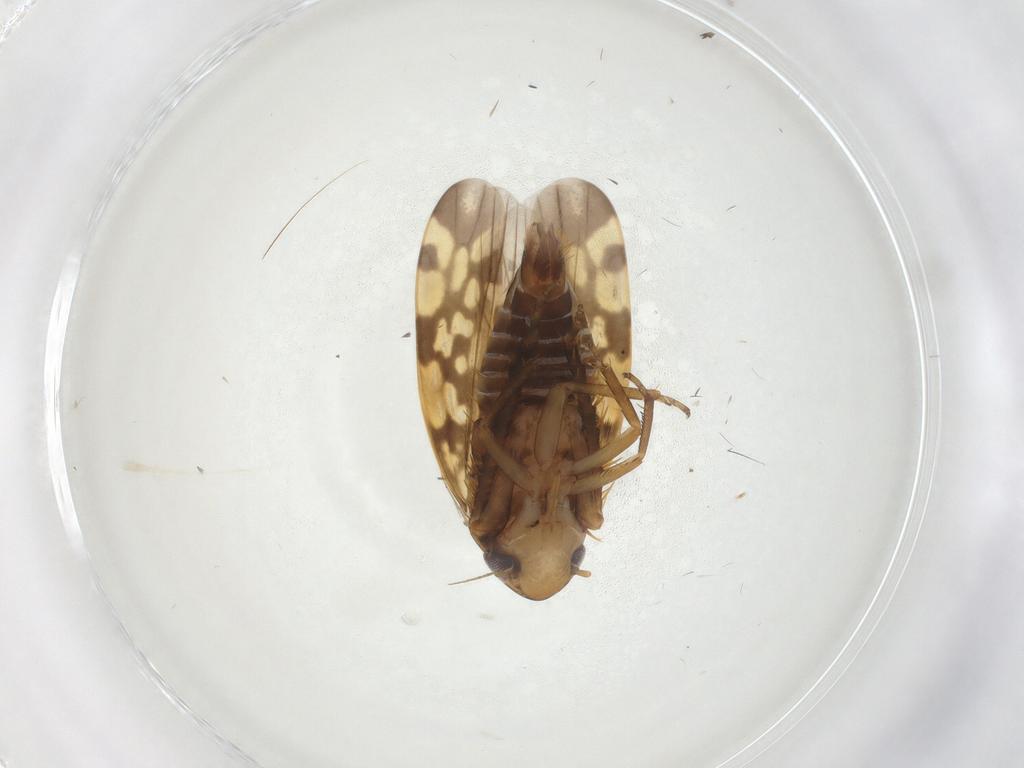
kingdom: Animalia
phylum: Arthropoda
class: Insecta
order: Hemiptera
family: Cicadellidae
